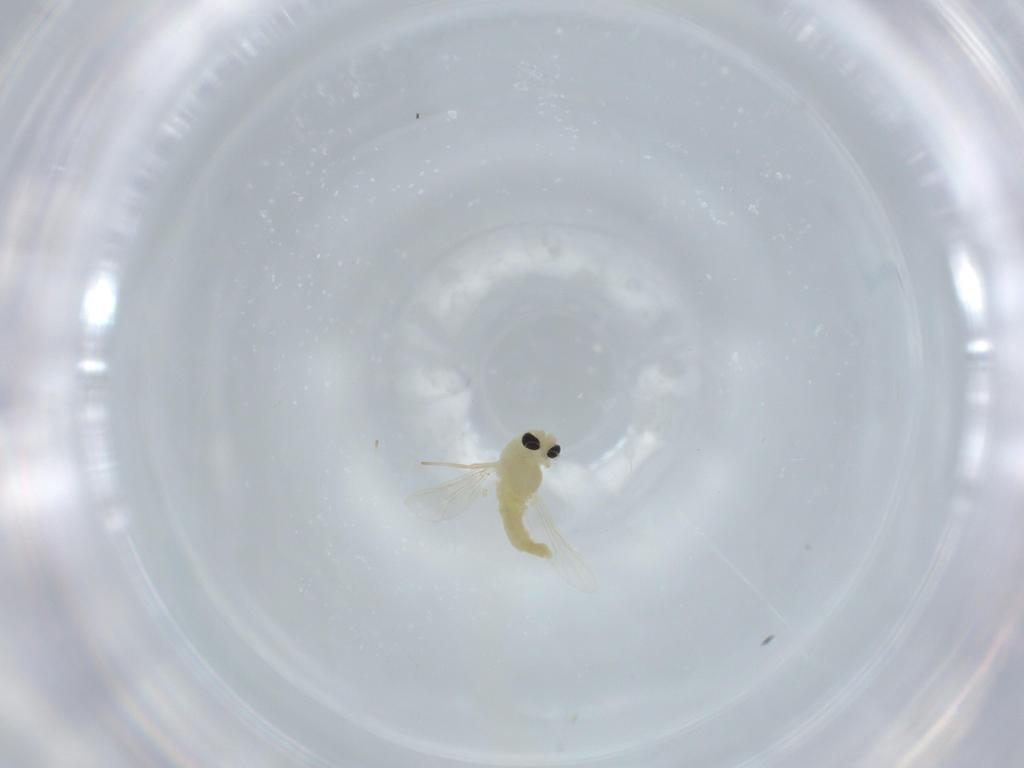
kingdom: Animalia
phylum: Arthropoda
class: Insecta
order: Diptera
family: Chironomidae
